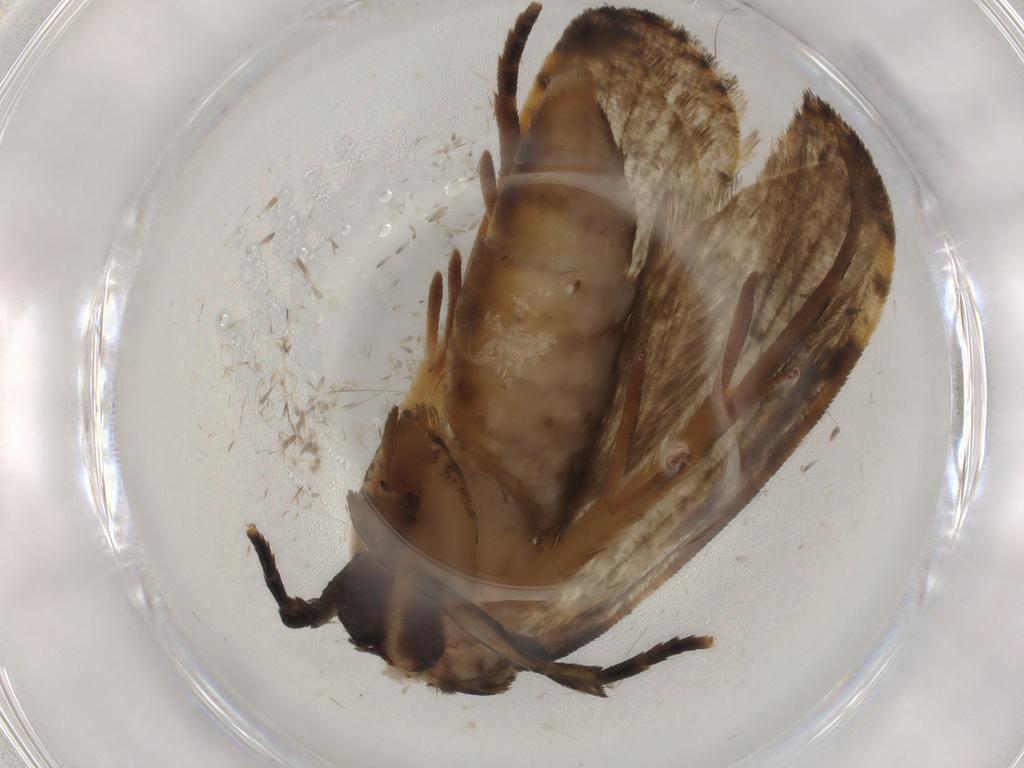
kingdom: Animalia
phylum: Arthropoda
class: Insecta
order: Lepidoptera
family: Tineidae
